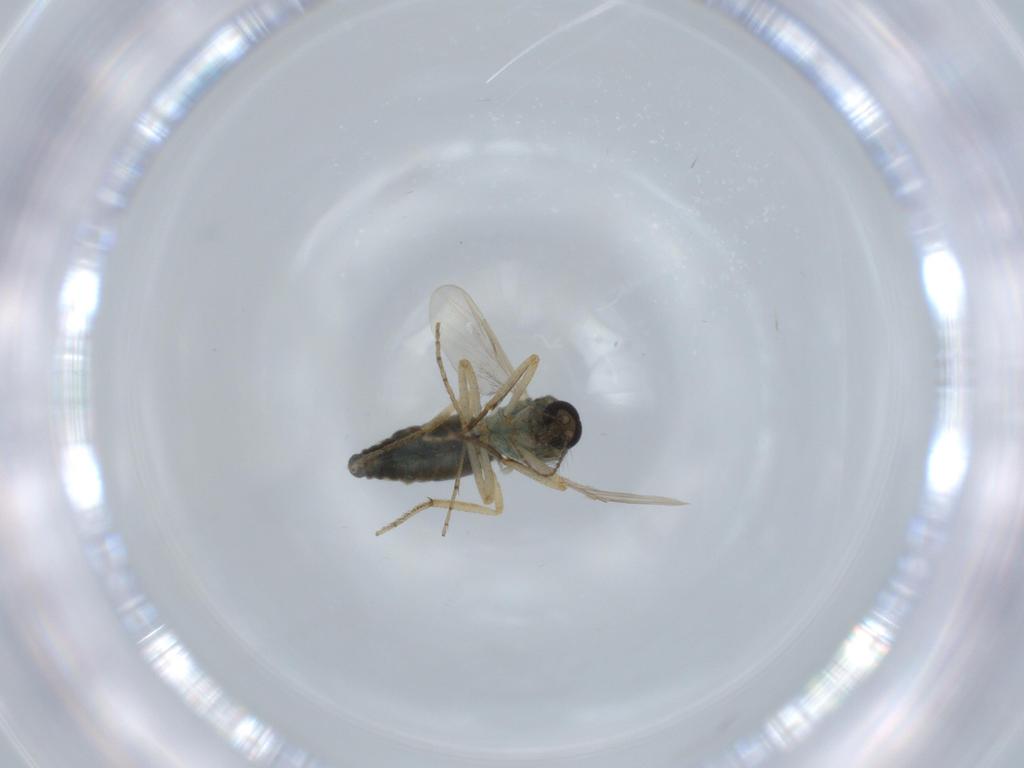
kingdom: Animalia
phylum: Arthropoda
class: Insecta
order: Diptera
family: Ceratopogonidae
